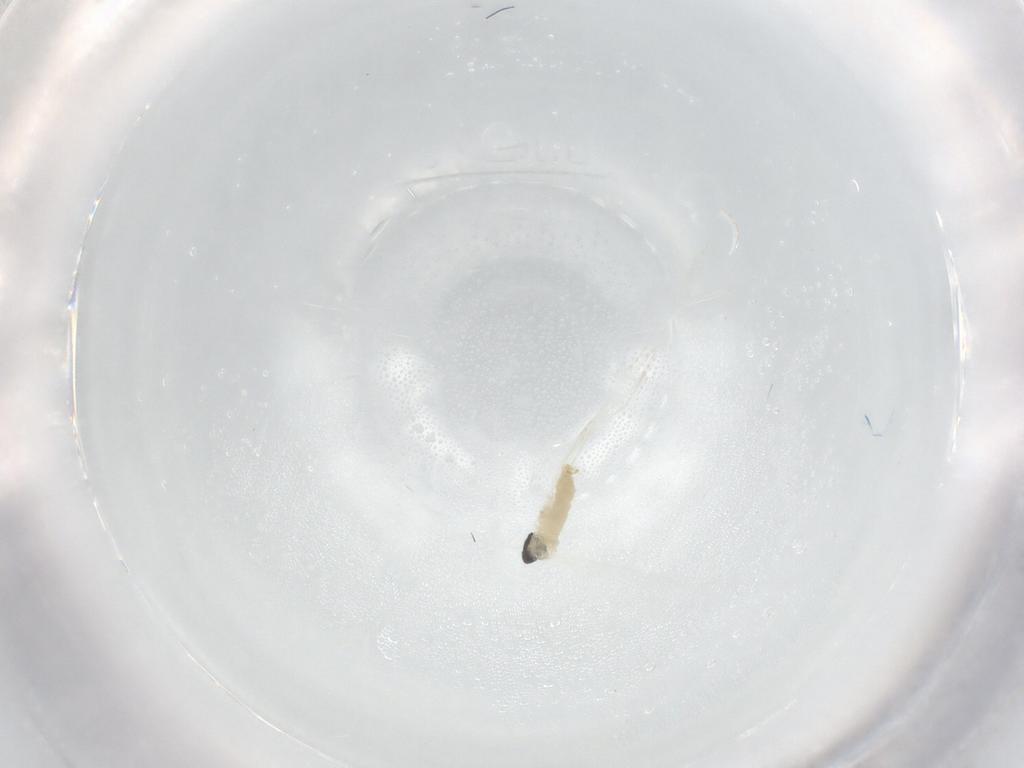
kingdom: Animalia
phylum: Arthropoda
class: Insecta
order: Diptera
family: Cecidomyiidae
